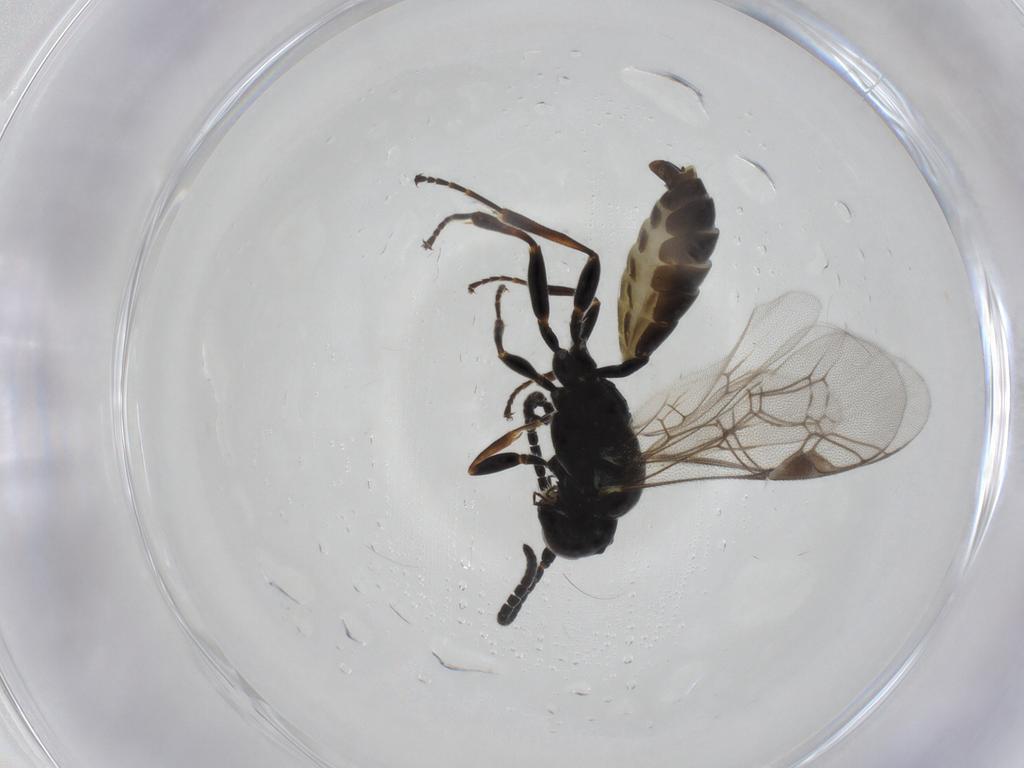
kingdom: Animalia
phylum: Arthropoda
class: Insecta
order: Hymenoptera
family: Ichneumonidae
